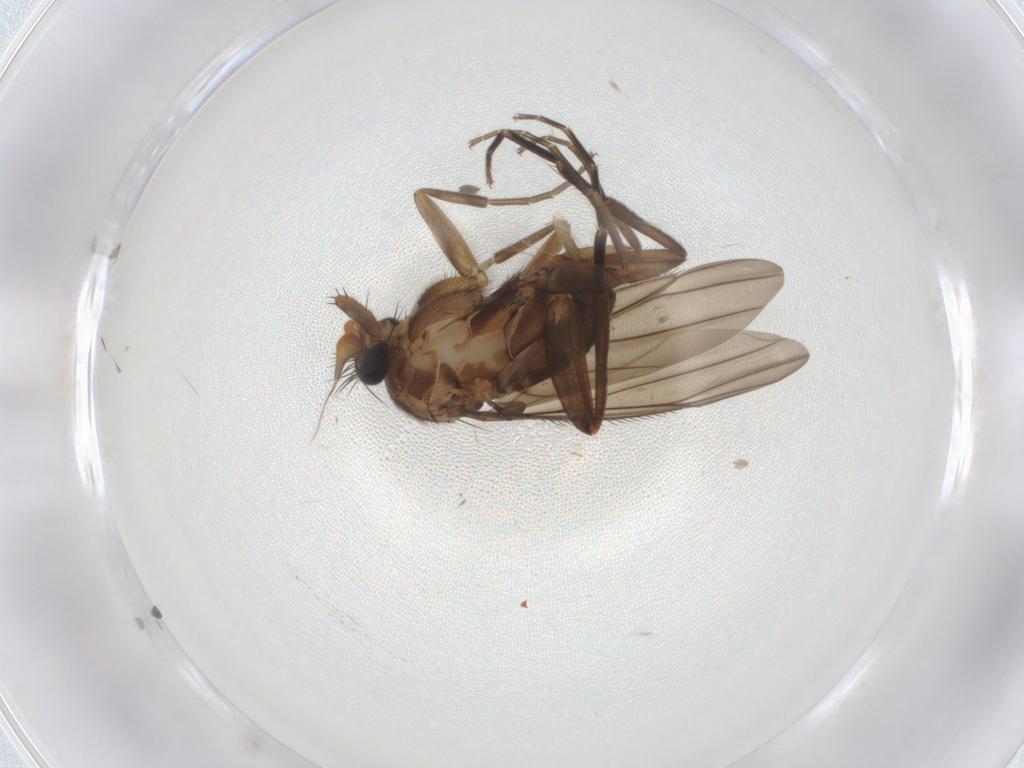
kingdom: Animalia
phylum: Arthropoda
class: Insecta
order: Diptera
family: Phoridae
